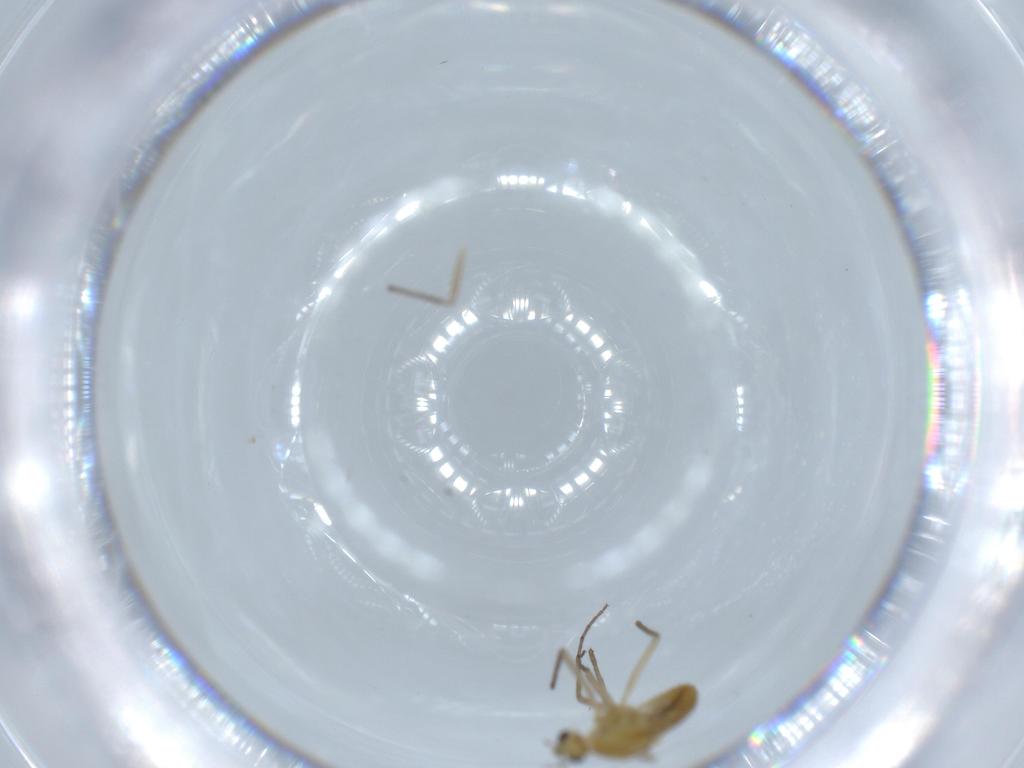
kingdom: Animalia
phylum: Arthropoda
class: Insecta
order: Diptera
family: Chironomidae
